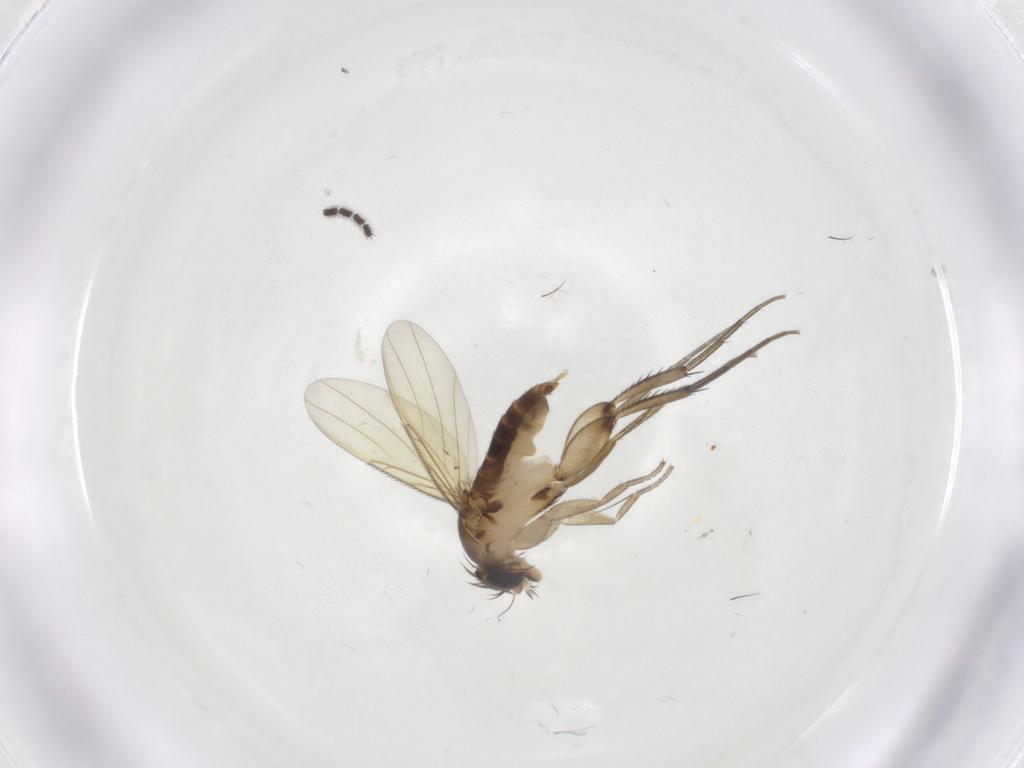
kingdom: Animalia
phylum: Arthropoda
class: Insecta
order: Diptera
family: Phoridae
